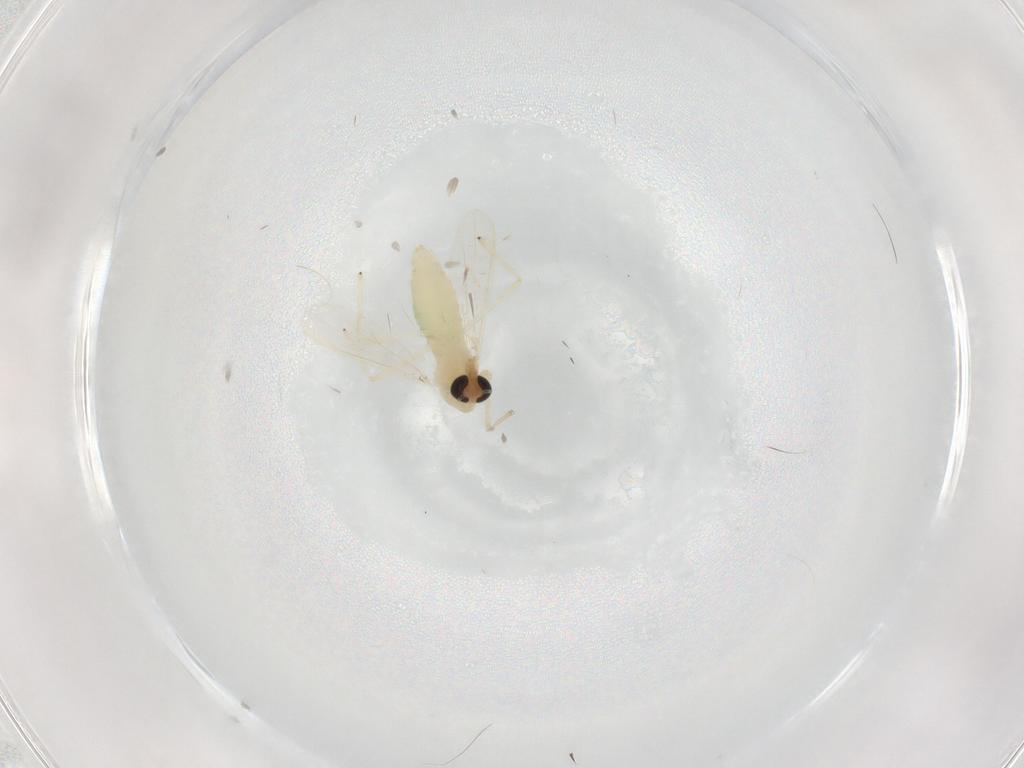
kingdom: Animalia
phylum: Arthropoda
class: Insecta
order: Diptera
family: Chironomidae
